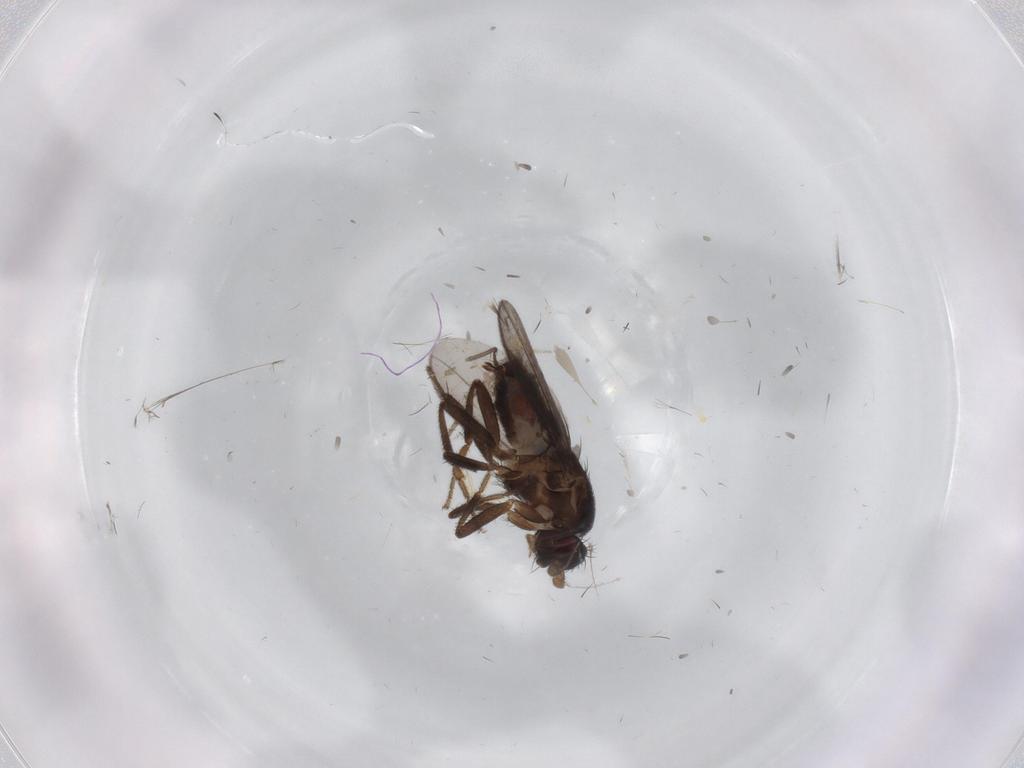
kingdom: Animalia
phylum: Arthropoda
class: Insecta
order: Diptera
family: Sphaeroceridae
